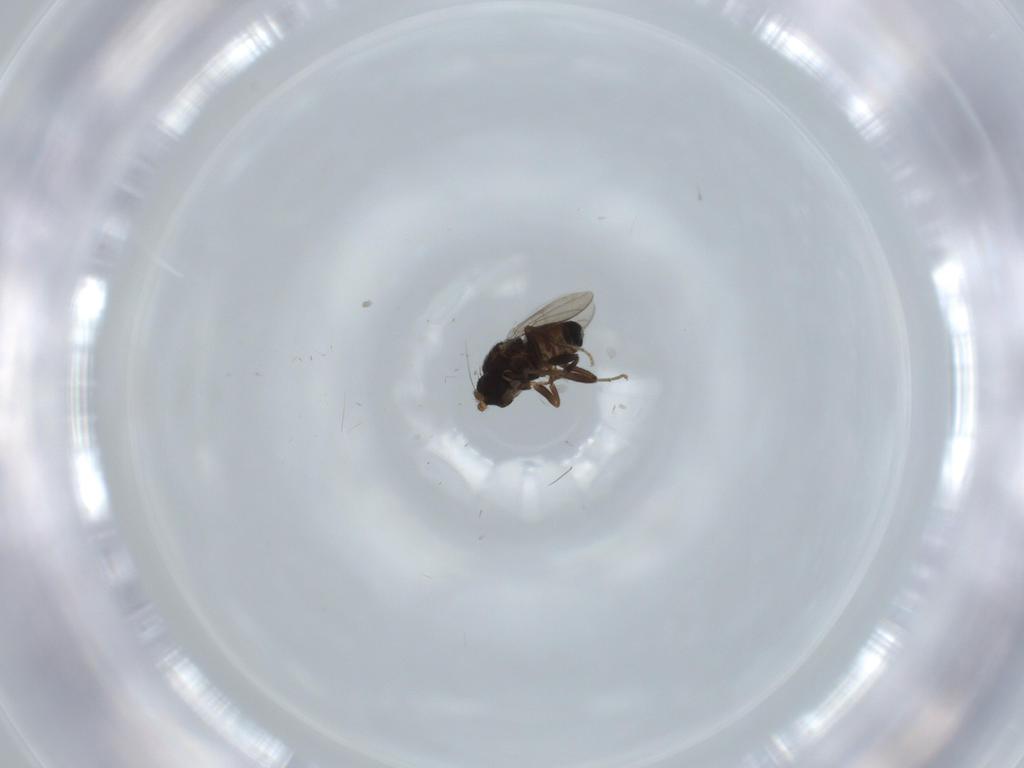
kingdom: Animalia
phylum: Arthropoda
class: Insecta
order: Diptera
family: Sphaeroceridae
